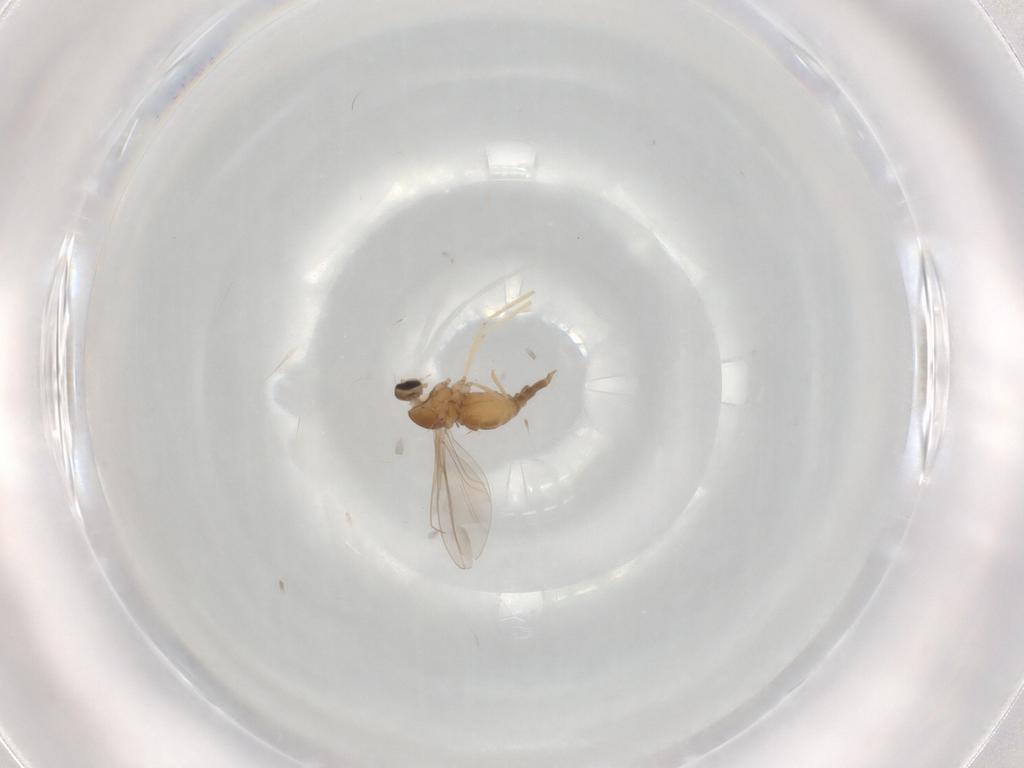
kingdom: Animalia
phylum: Arthropoda
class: Insecta
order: Diptera
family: Cecidomyiidae
